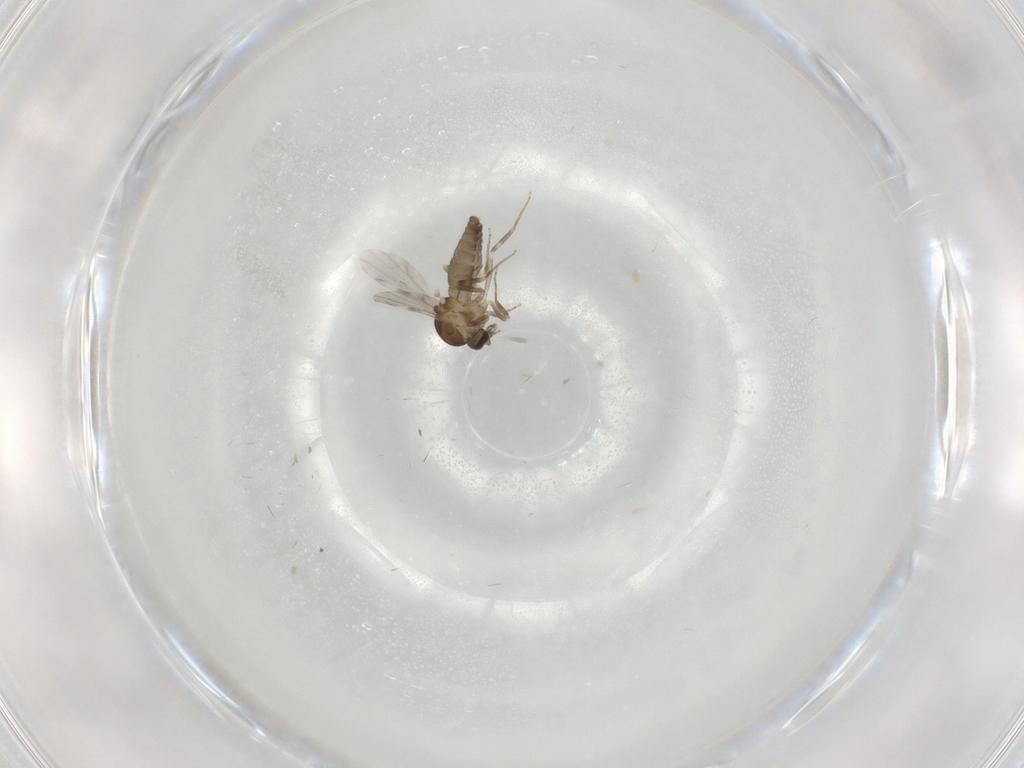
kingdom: Animalia
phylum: Arthropoda
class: Insecta
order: Diptera
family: Ceratopogonidae
